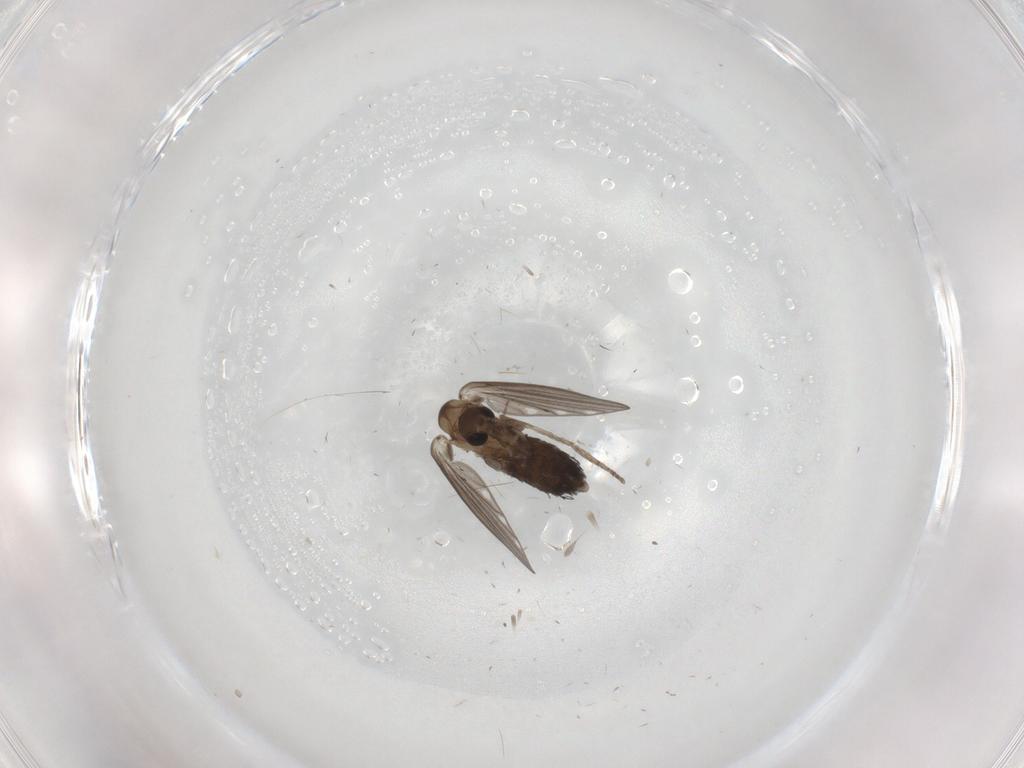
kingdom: Animalia
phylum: Arthropoda
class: Insecta
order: Diptera
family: Psychodidae
